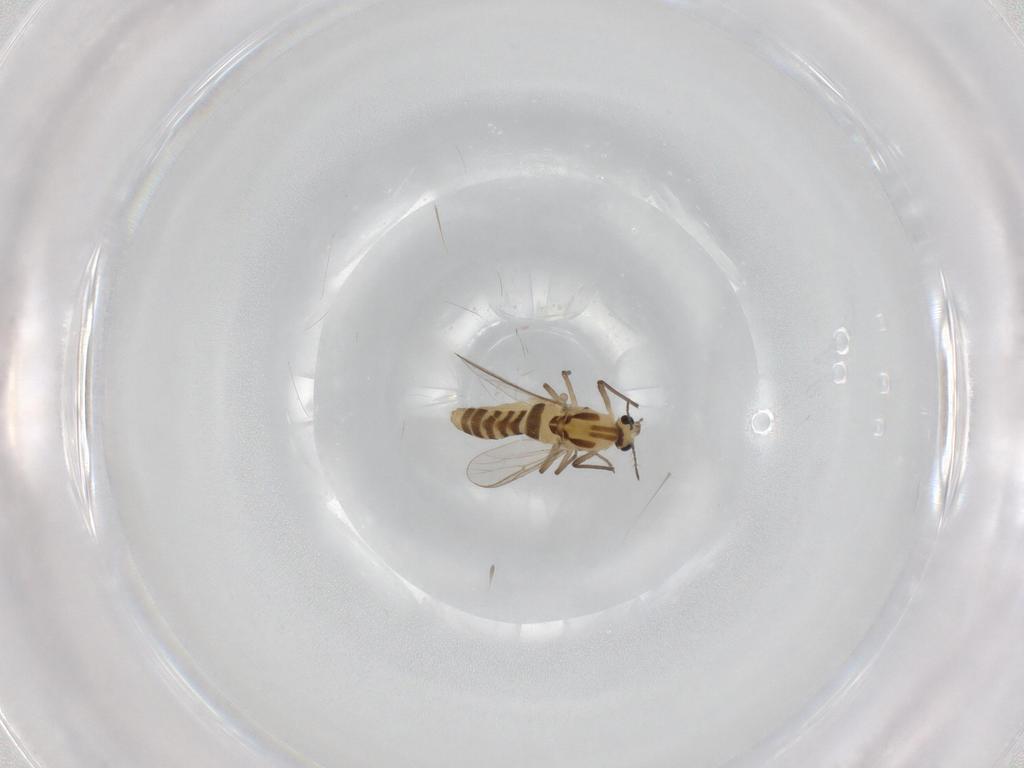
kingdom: Animalia
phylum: Arthropoda
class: Insecta
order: Diptera
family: Chironomidae
